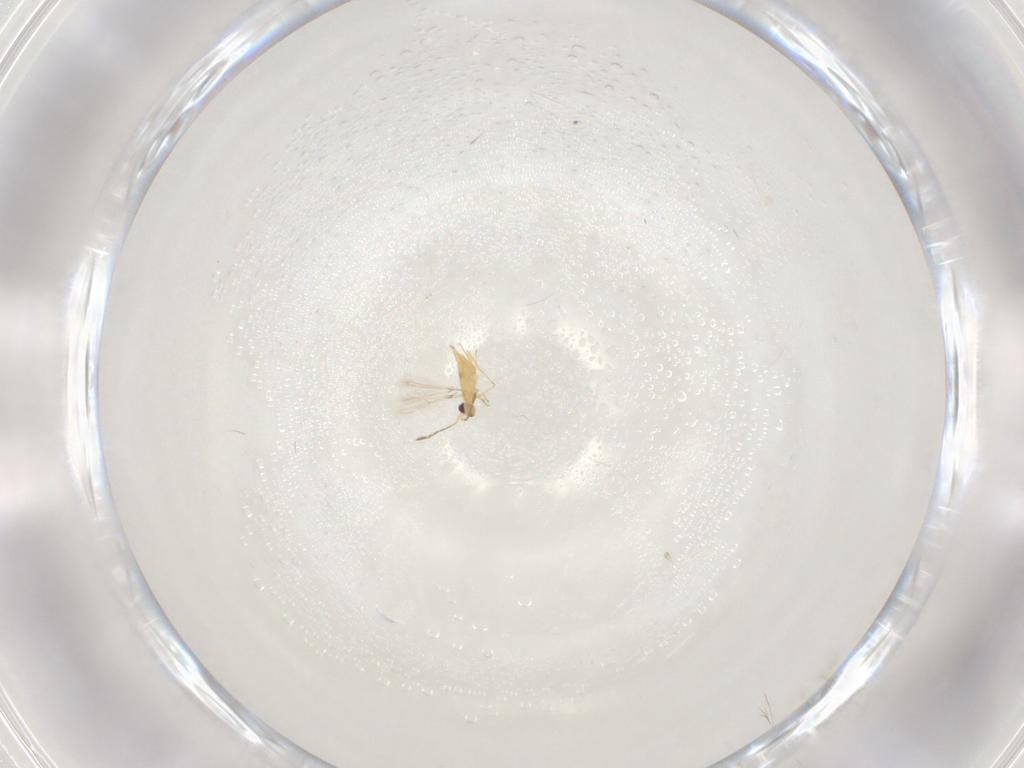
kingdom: Animalia
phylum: Arthropoda
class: Insecta
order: Hymenoptera
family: Mymaridae
